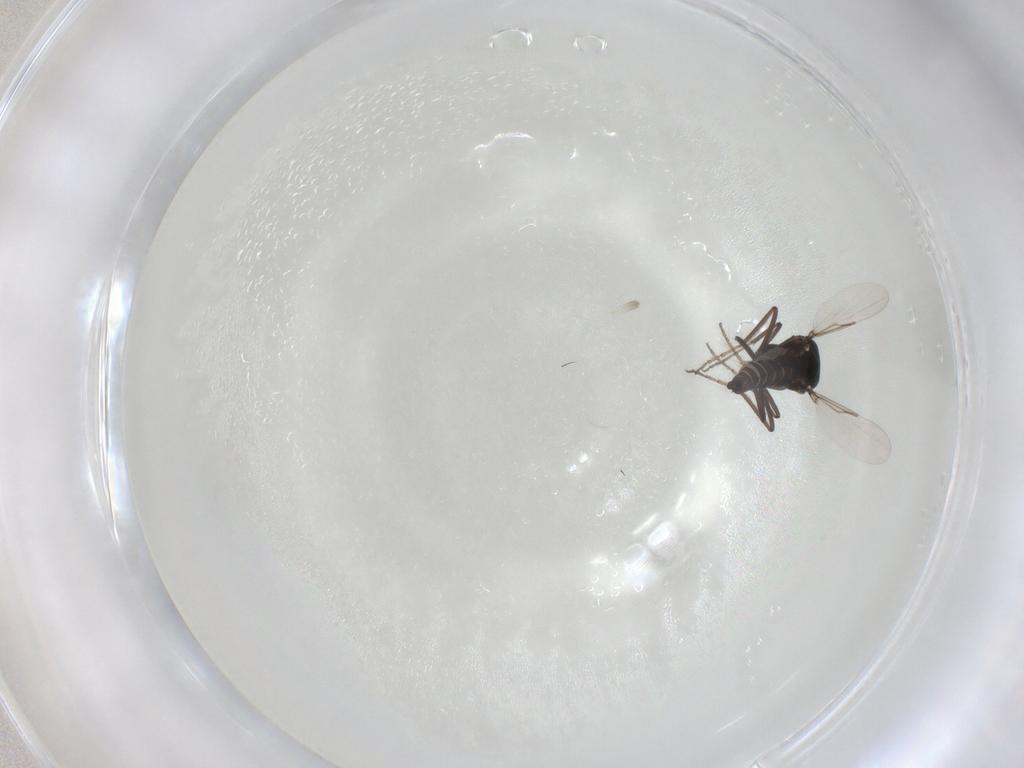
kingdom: Animalia
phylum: Arthropoda
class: Insecta
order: Diptera
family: Ceratopogonidae
